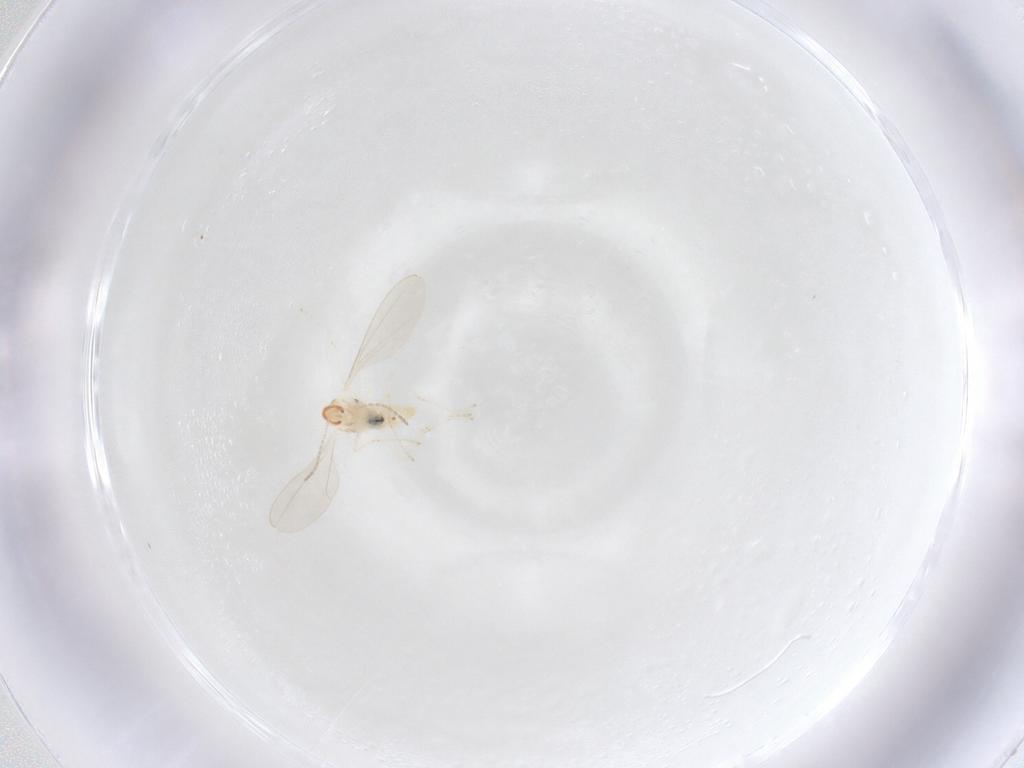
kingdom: Animalia
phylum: Arthropoda
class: Insecta
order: Diptera
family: Cecidomyiidae
